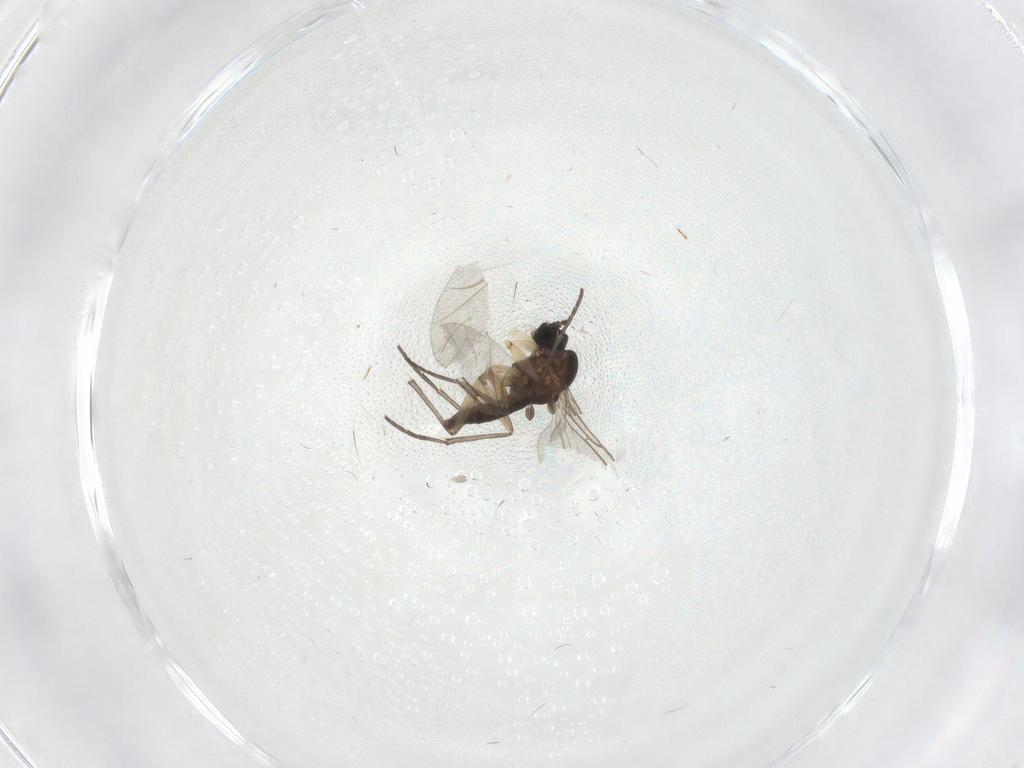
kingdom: Animalia
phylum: Arthropoda
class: Insecta
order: Diptera
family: Sciaridae
